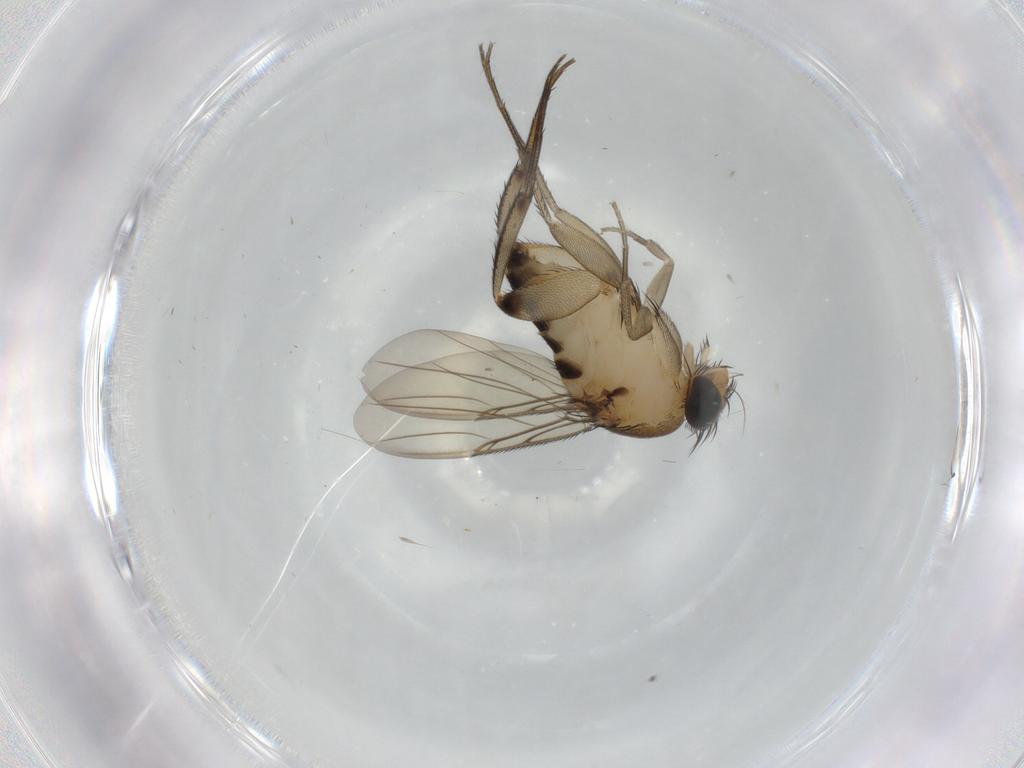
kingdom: Animalia
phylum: Arthropoda
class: Insecta
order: Diptera
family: Phoridae
